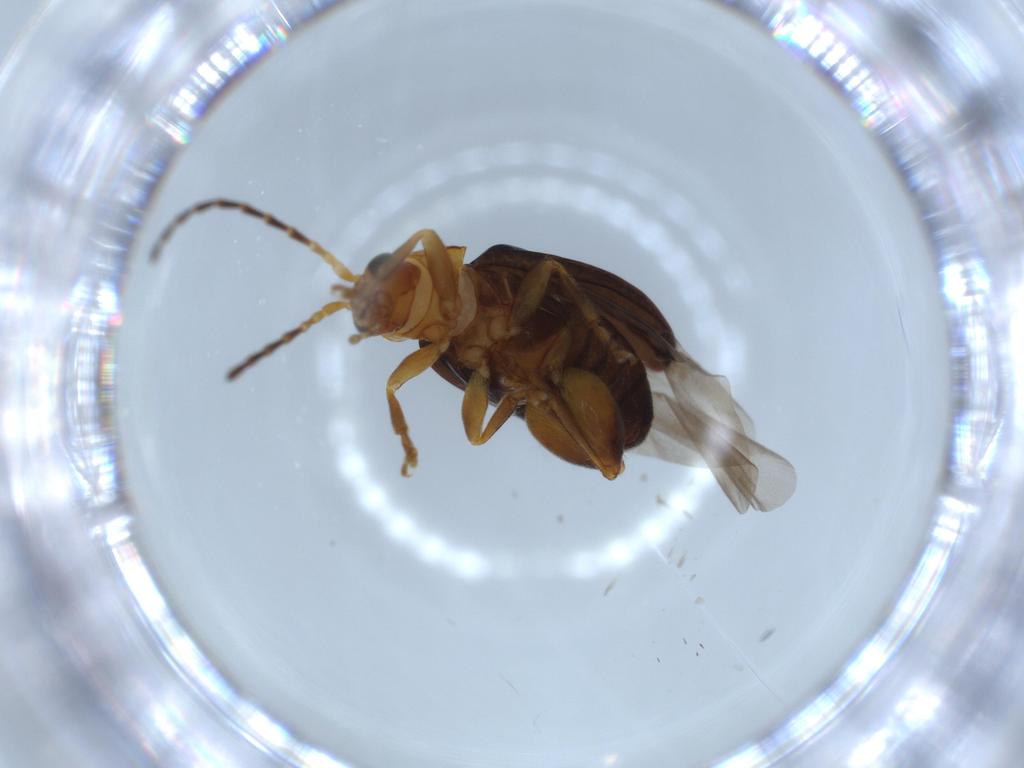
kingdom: Animalia
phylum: Arthropoda
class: Insecta
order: Coleoptera
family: Chrysomelidae
